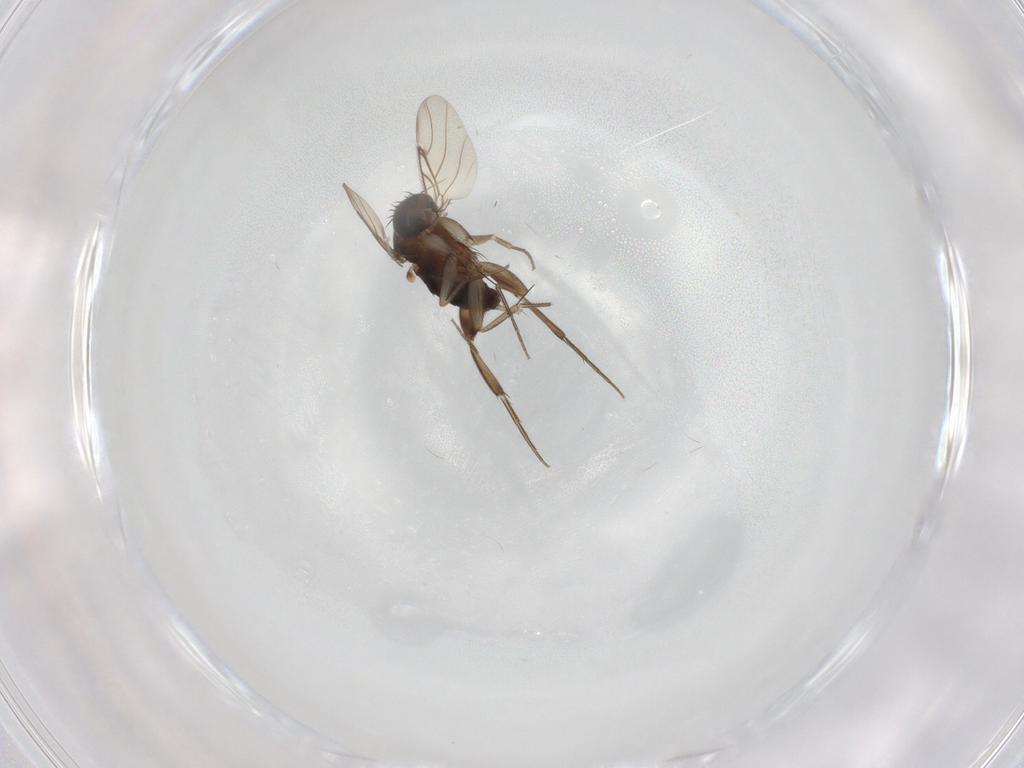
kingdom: Animalia
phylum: Arthropoda
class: Insecta
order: Diptera
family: Phoridae
